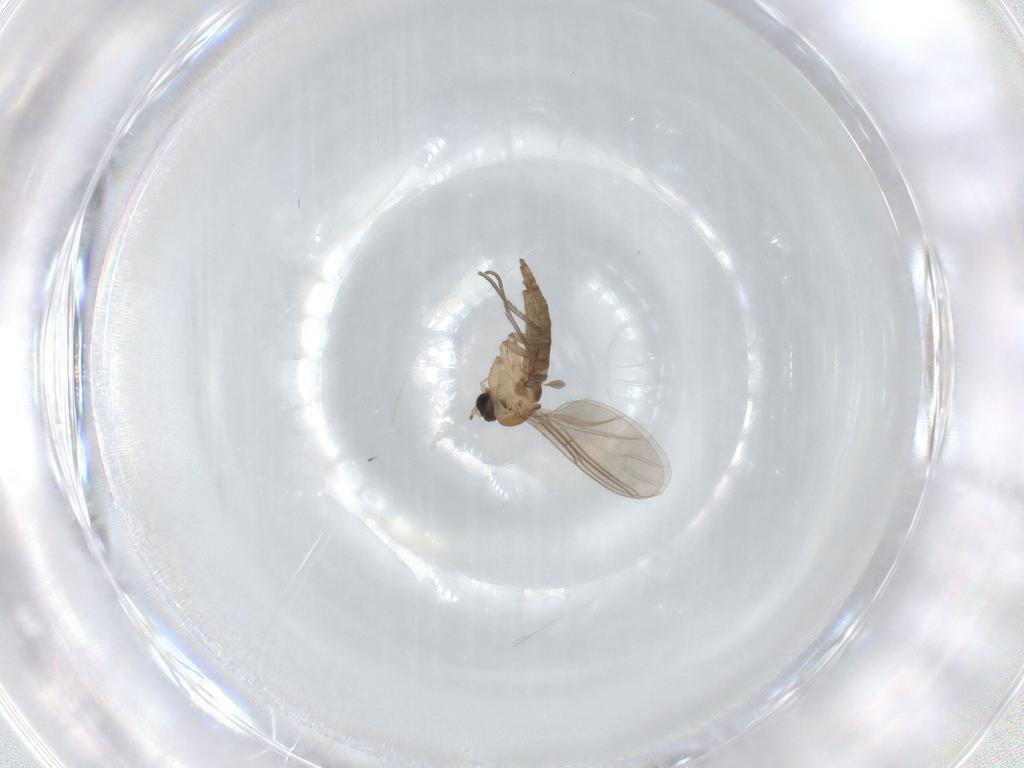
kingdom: Animalia
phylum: Arthropoda
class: Insecta
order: Diptera
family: Sciaridae
